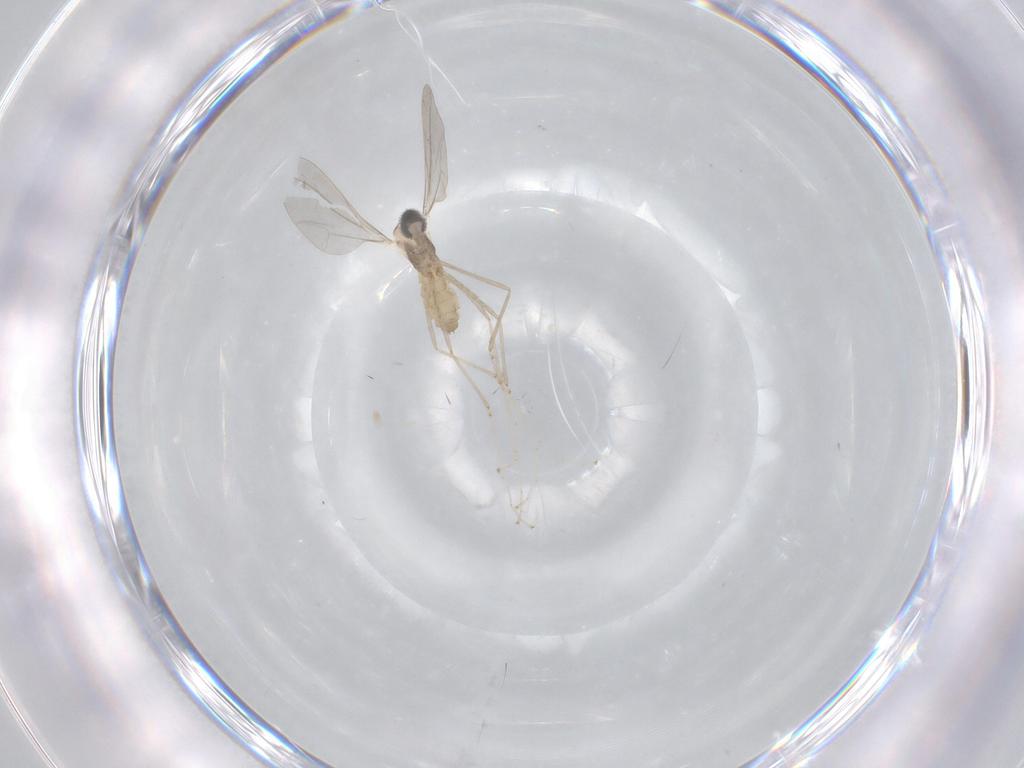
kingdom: Animalia
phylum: Arthropoda
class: Insecta
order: Diptera
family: Cecidomyiidae
